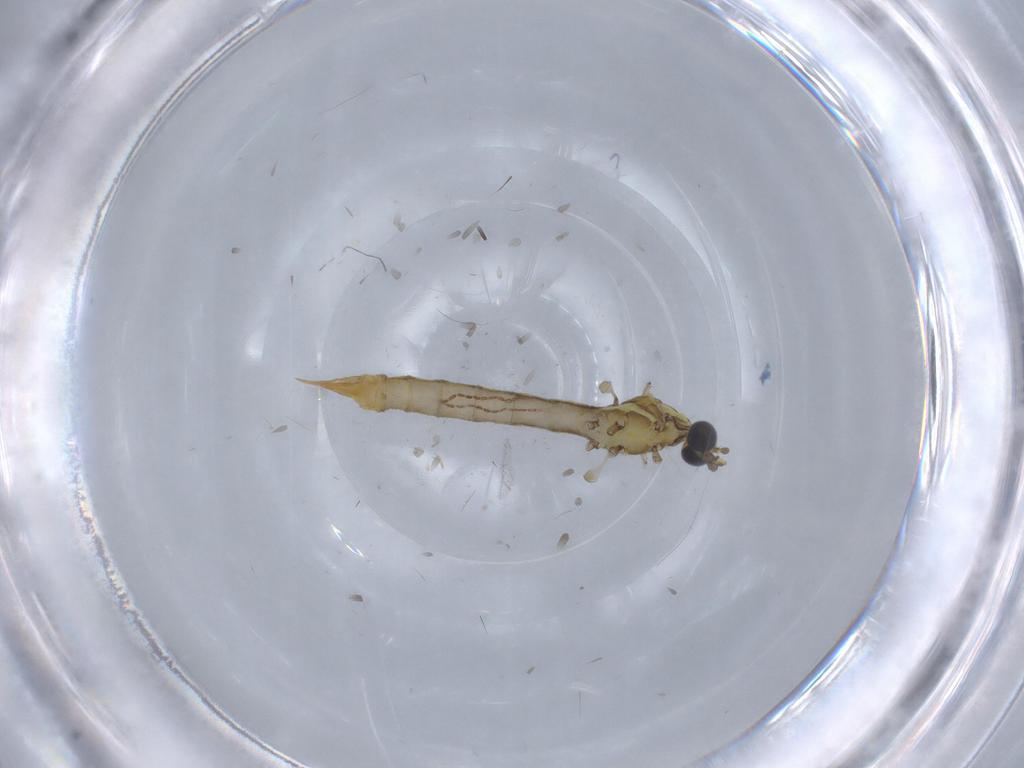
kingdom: Animalia
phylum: Arthropoda
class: Insecta
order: Diptera
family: Limoniidae
